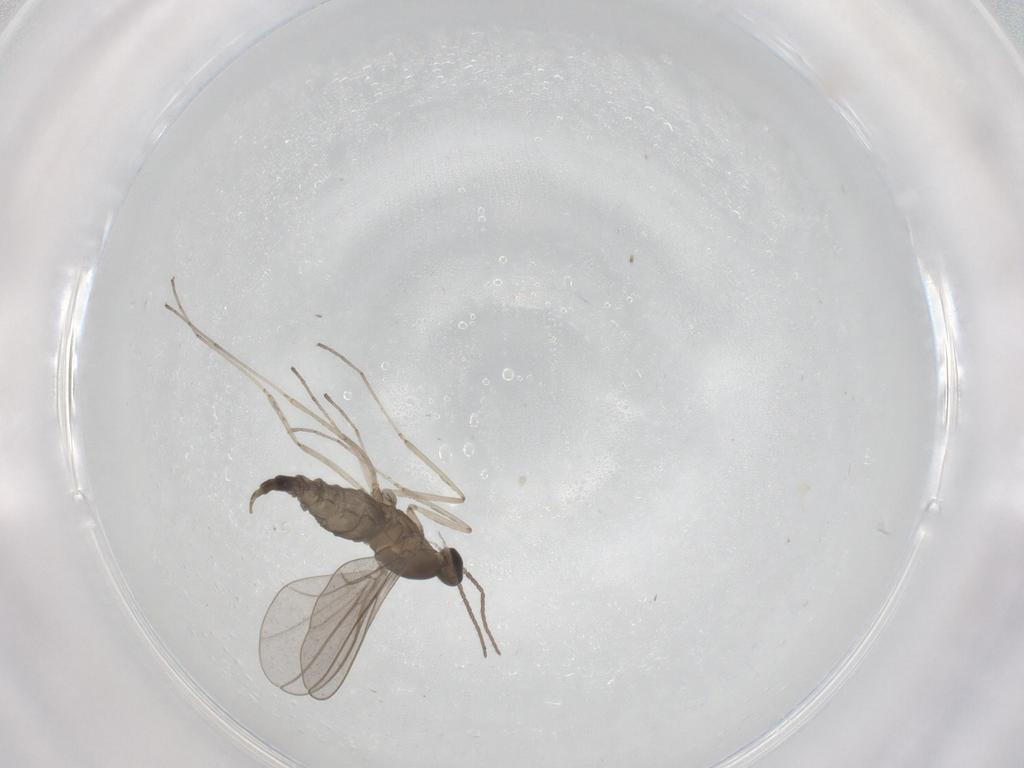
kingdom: Animalia
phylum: Arthropoda
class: Insecta
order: Diptera
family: Cecidomyiidae
